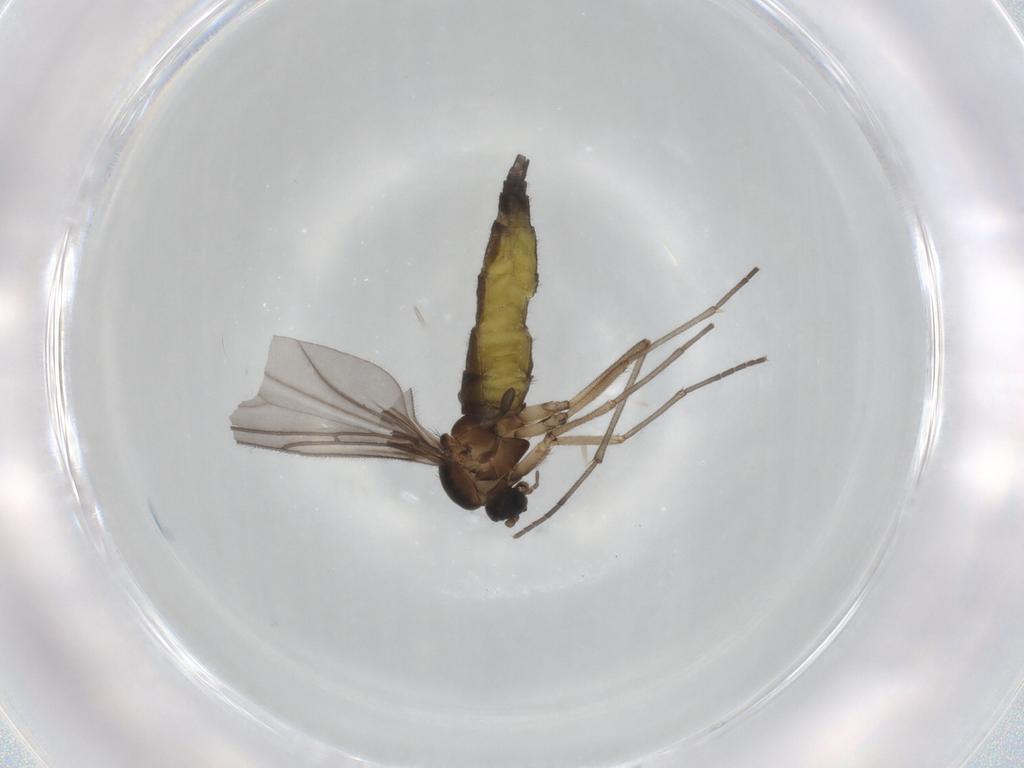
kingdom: Animalia
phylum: Arthropoda
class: Insecta
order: Diptera
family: Sciaridae
